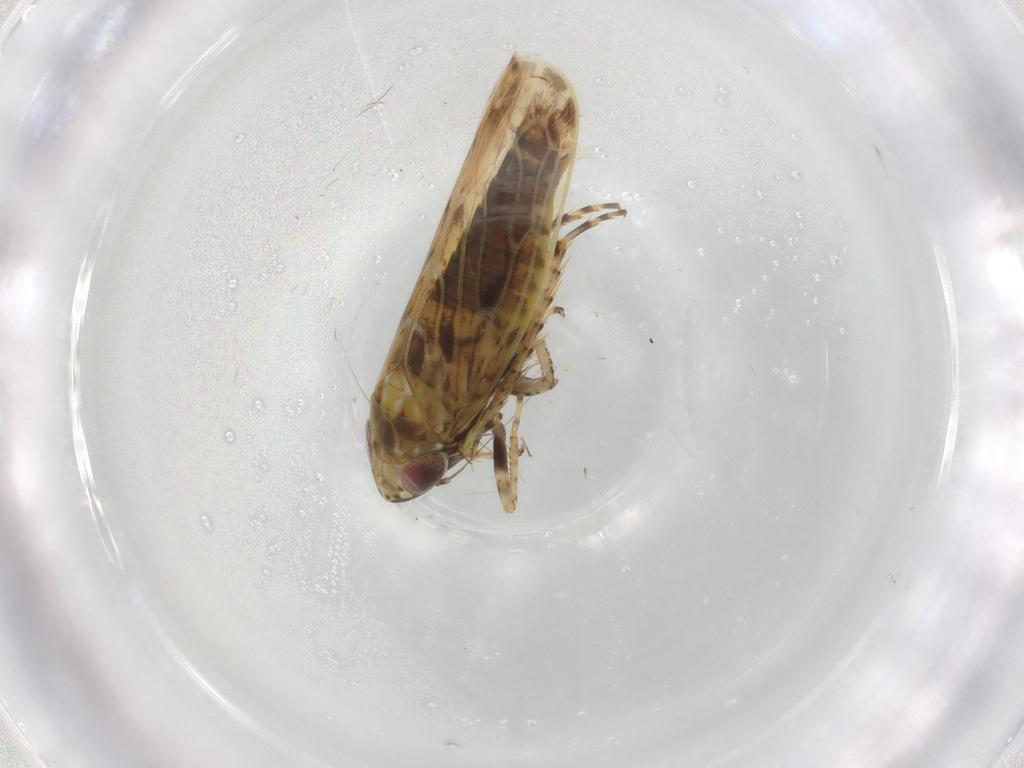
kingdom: Animalia
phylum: Arthropoda
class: Insecta
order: Hemiptera
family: Cicadellidae
